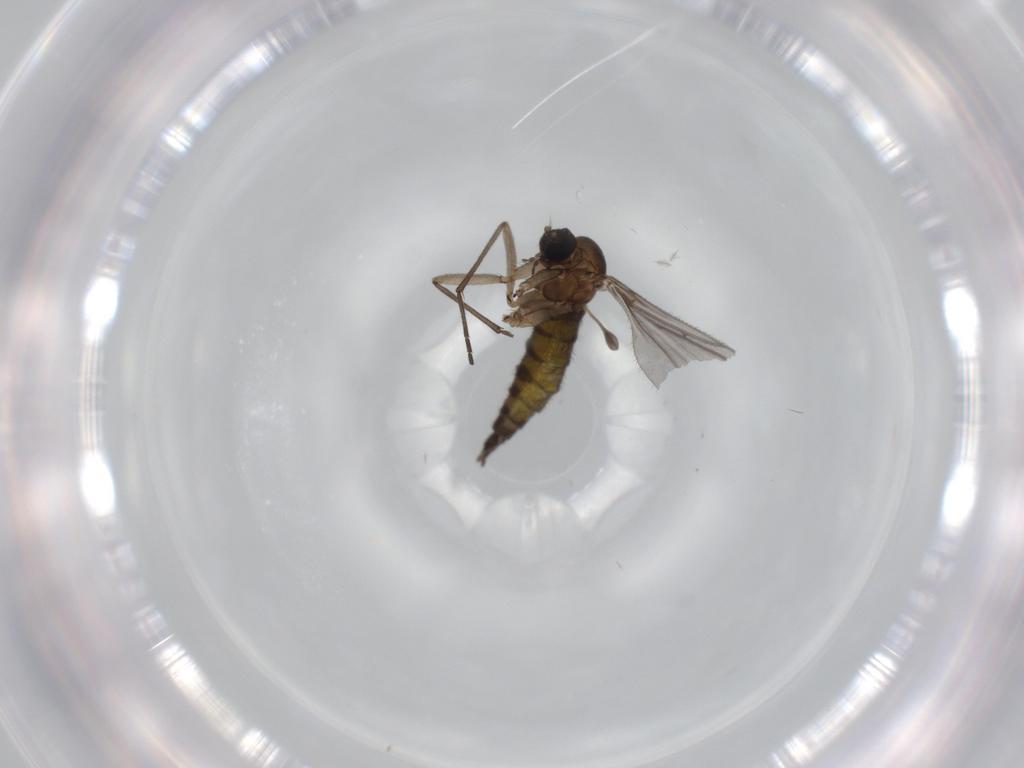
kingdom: Animalia
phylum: Arthropoda
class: Insecta
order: Diptera
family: Sciaridae
